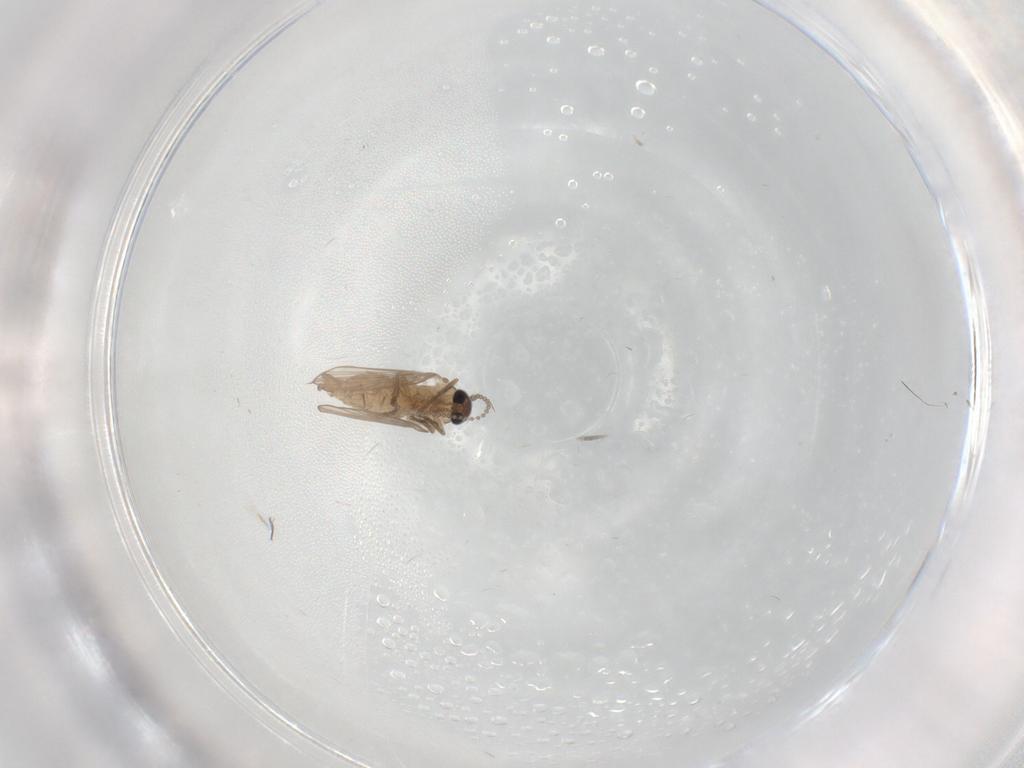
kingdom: Animalia
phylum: Arthropoda
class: Insecta
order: Diptera
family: Psychodidae
